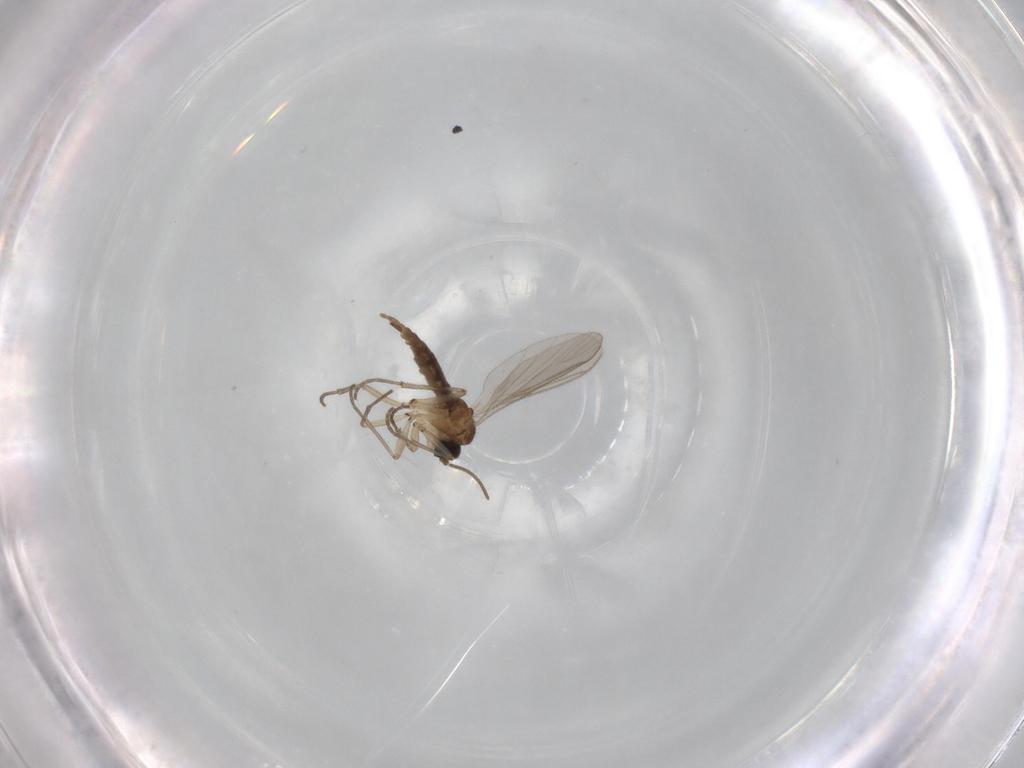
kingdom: Animalia
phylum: Arthropoda
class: Insecta
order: Diptera
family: Sciaridae
